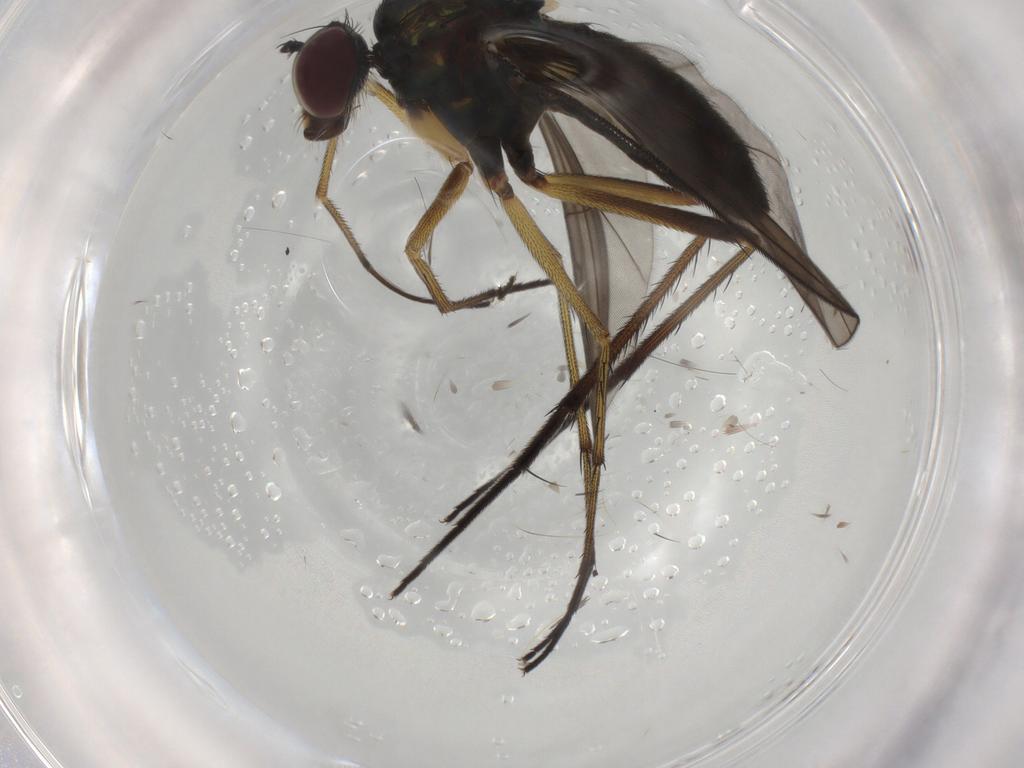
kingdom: Animalia
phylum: Arthropoda
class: Insecta
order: Diptera
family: Dolichopodidae
